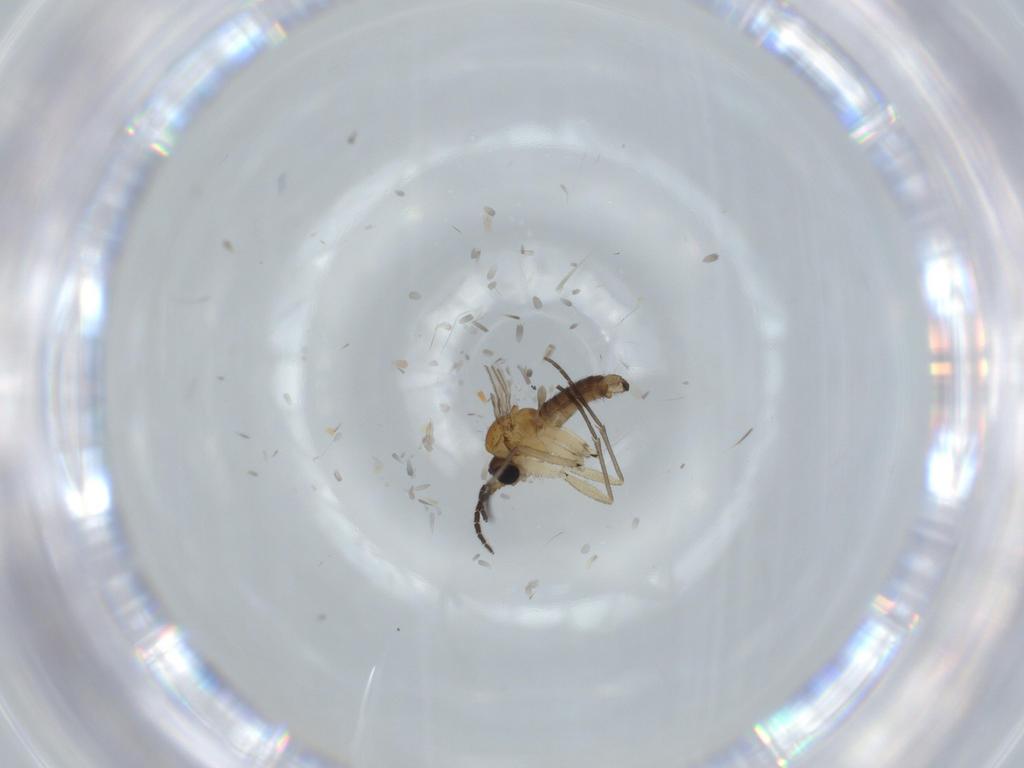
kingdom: Animalia
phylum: Arthropoda
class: Insecta
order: Diptera
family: Sciaridae
